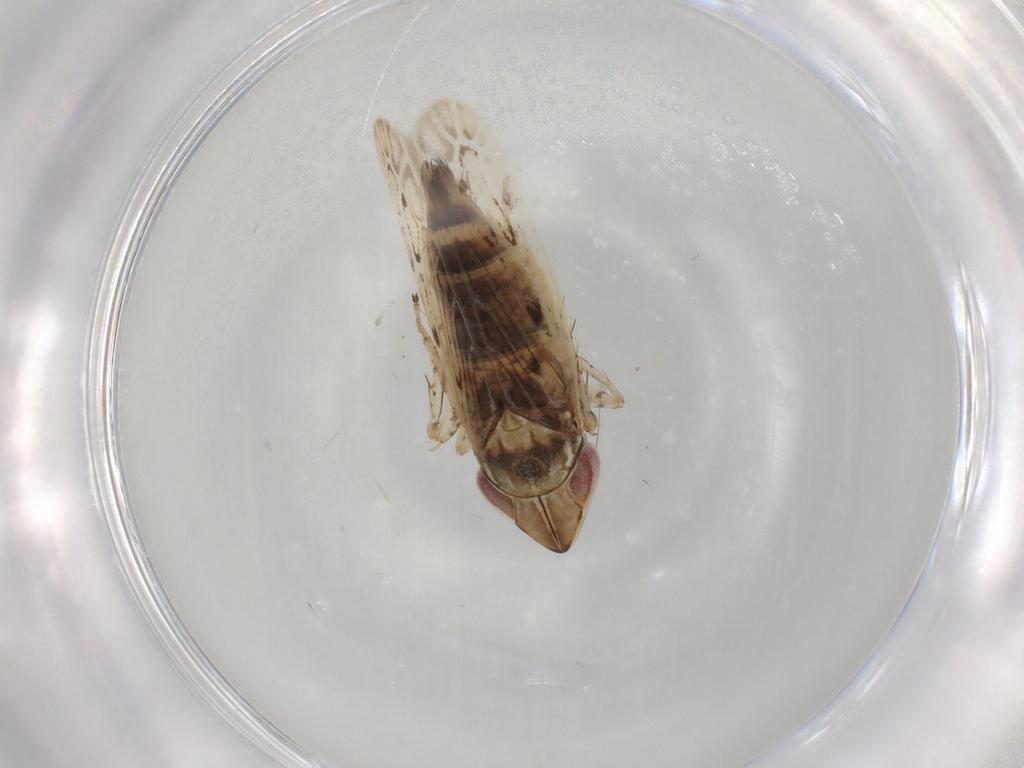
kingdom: Animalia
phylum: Arthropoda
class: Insecta
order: Hemiptera
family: Cicadellidae
